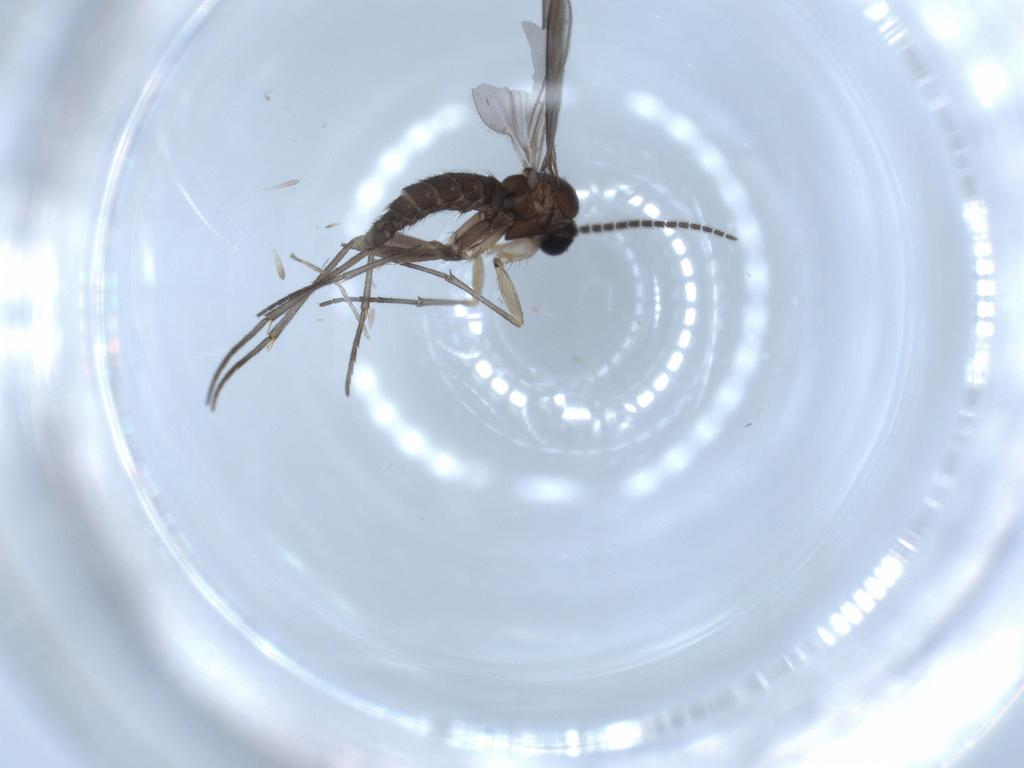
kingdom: Animalia
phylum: Arthropoda
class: Insecta
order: Diptera
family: Sciaridae
